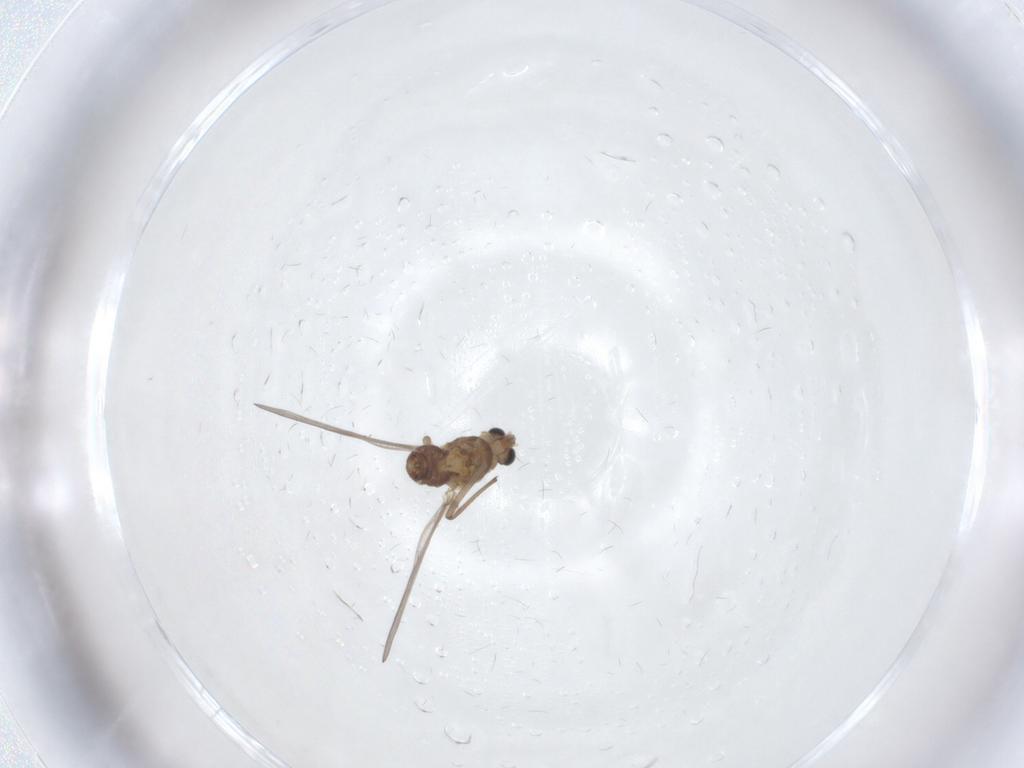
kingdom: Animalia
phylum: Arthropoda
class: Insecta
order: Diptera
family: Chironomidae
